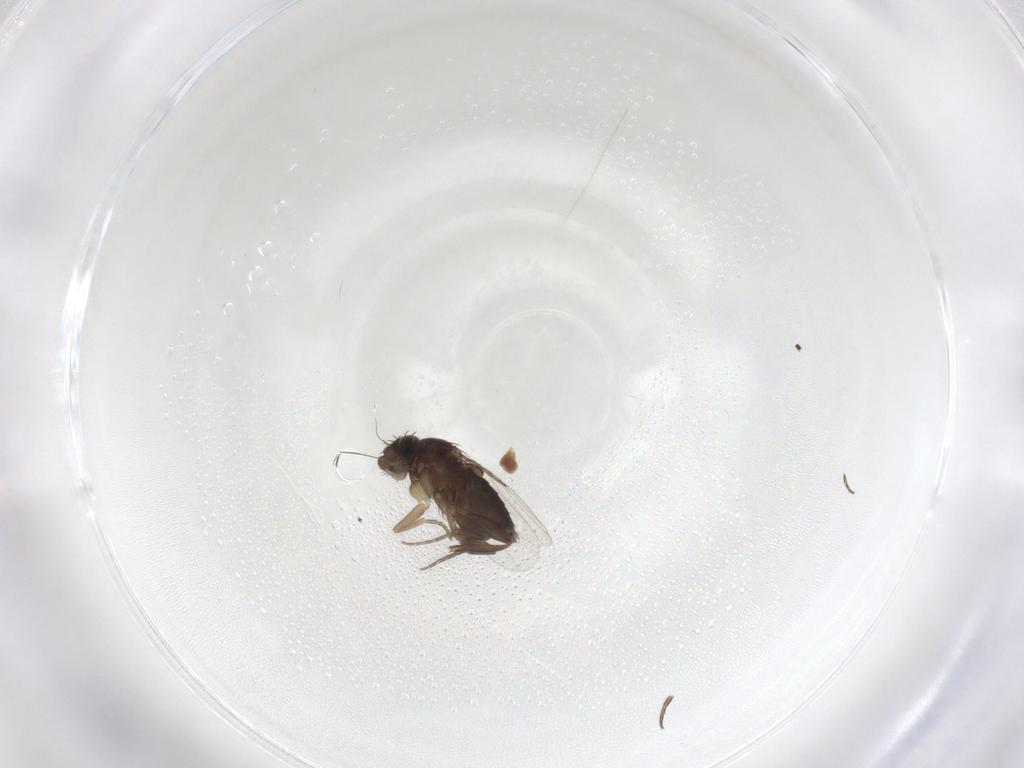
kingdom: Animalia
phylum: Arthropoda
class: Insecta
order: Diptera
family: Phoridae
